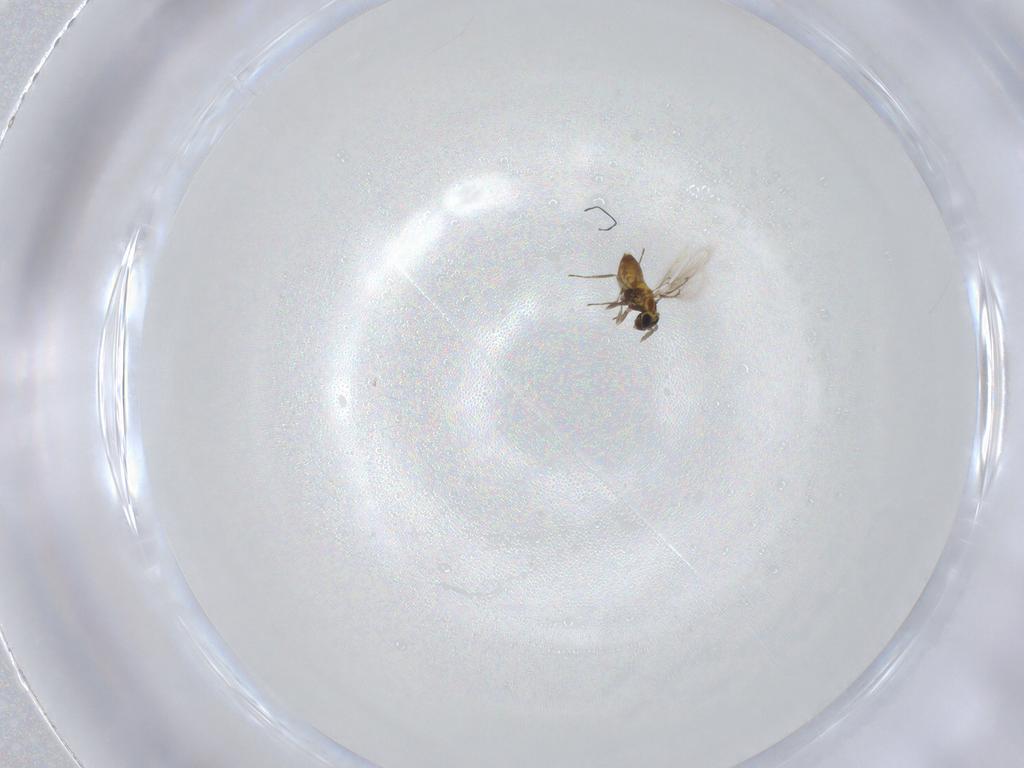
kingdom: Animalia
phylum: Arthropoda
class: Insecta
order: Hymenoptera
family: Trichogrammatidae
